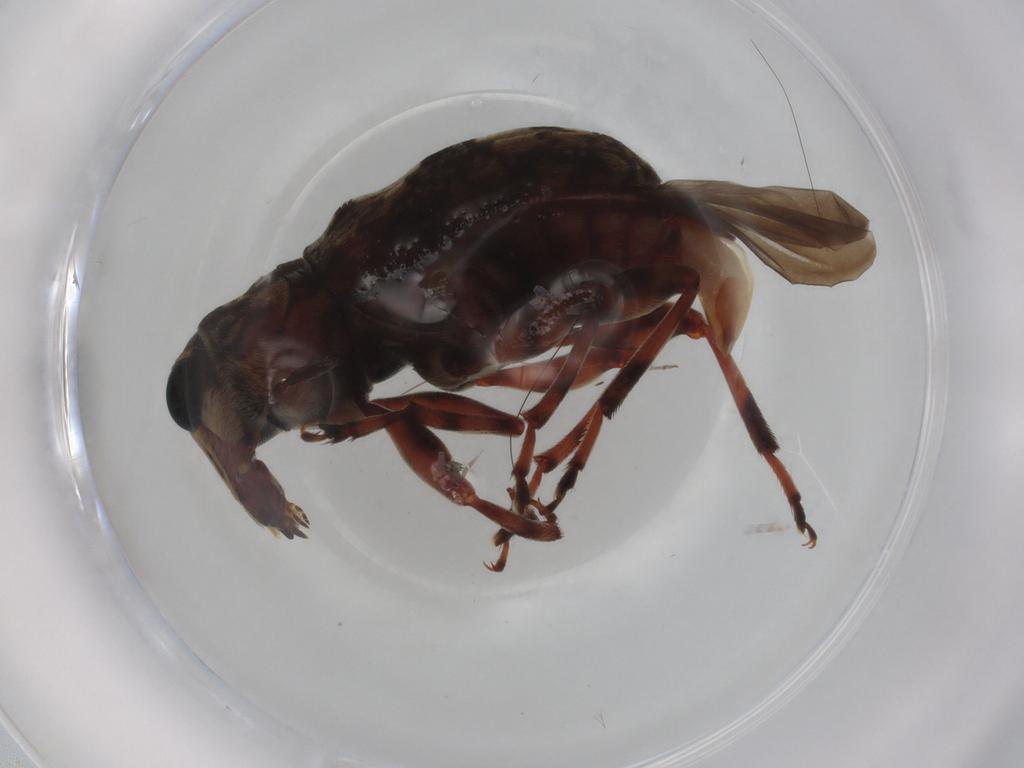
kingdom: Animalia
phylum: Arthropoda
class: Insecta
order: Coleoptera
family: Anthribidae
